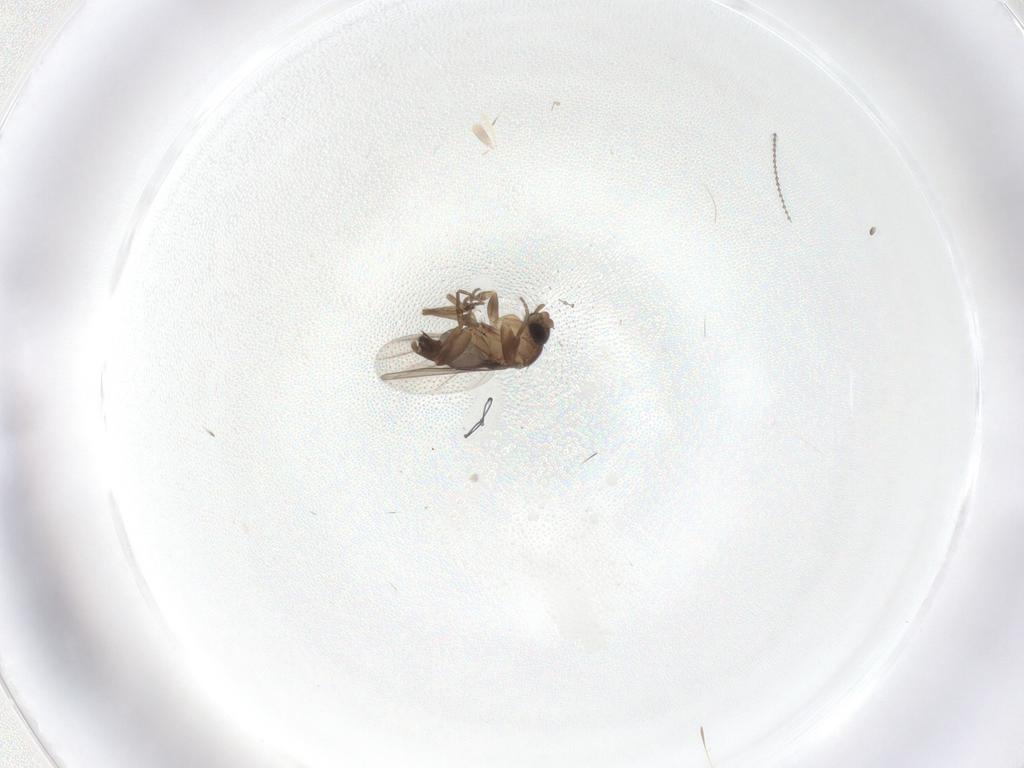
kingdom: Animalia
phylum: Arthropoda
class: Insecta
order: Diptera
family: Phoridae
